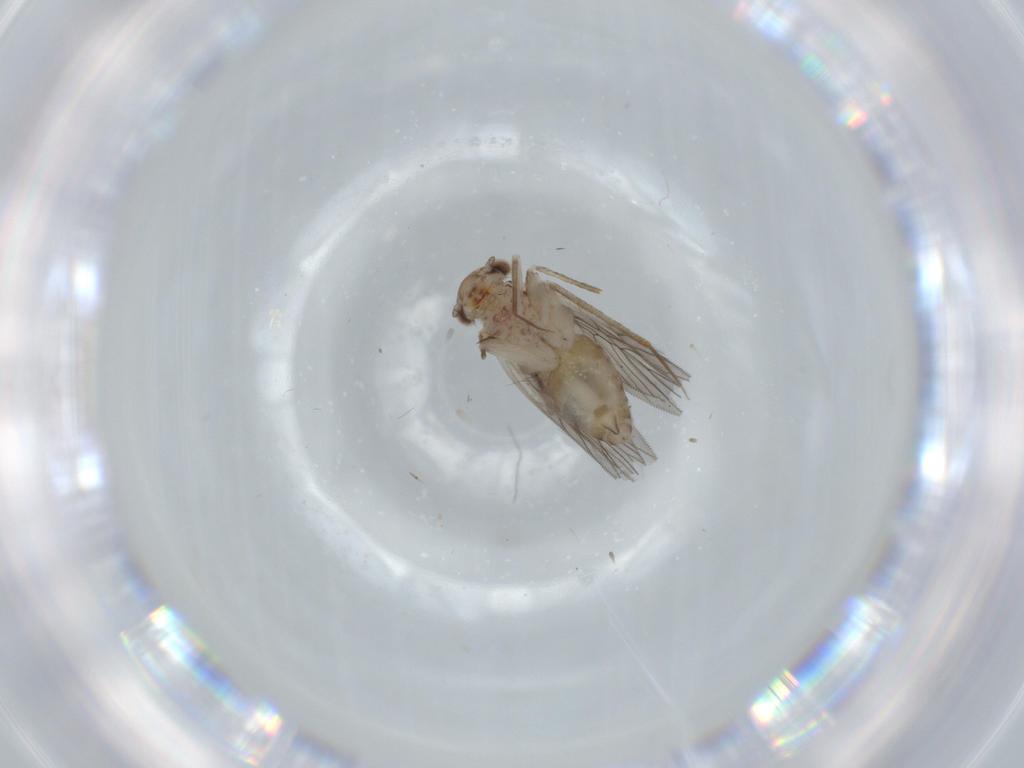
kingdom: Animalia
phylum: Arthropoda
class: Insecta
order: Psocodea
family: Lepidopsocidae
